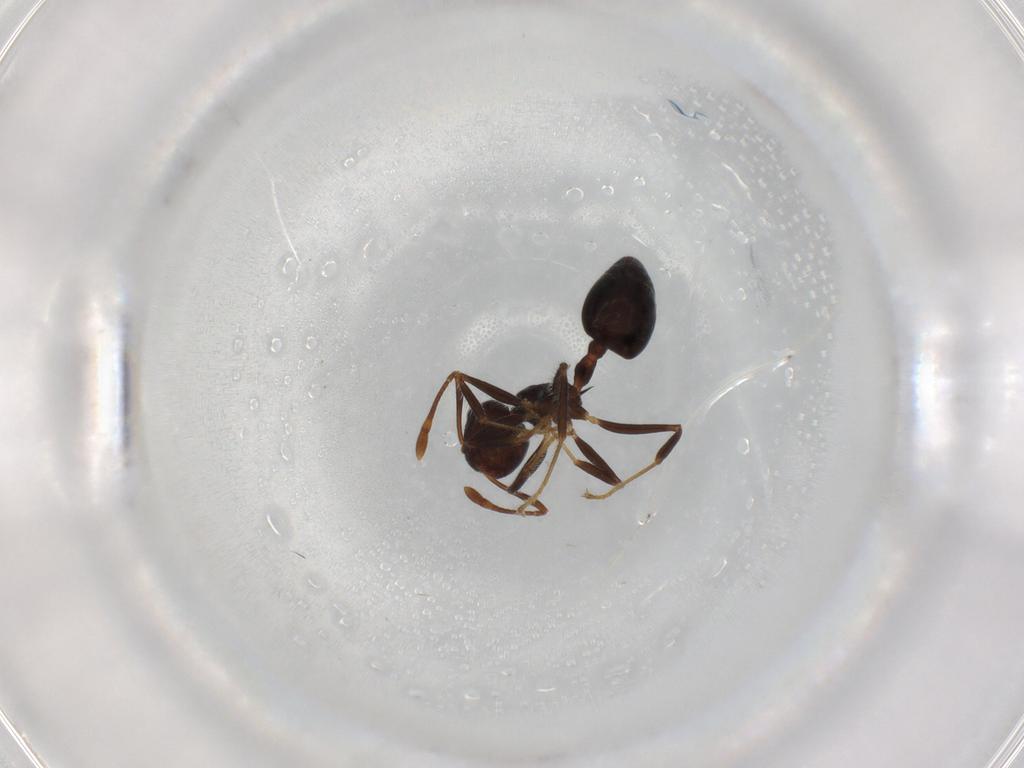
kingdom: Animalia
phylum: Arthropoda
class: Insecta
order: Hymenoptera
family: Formicidae
